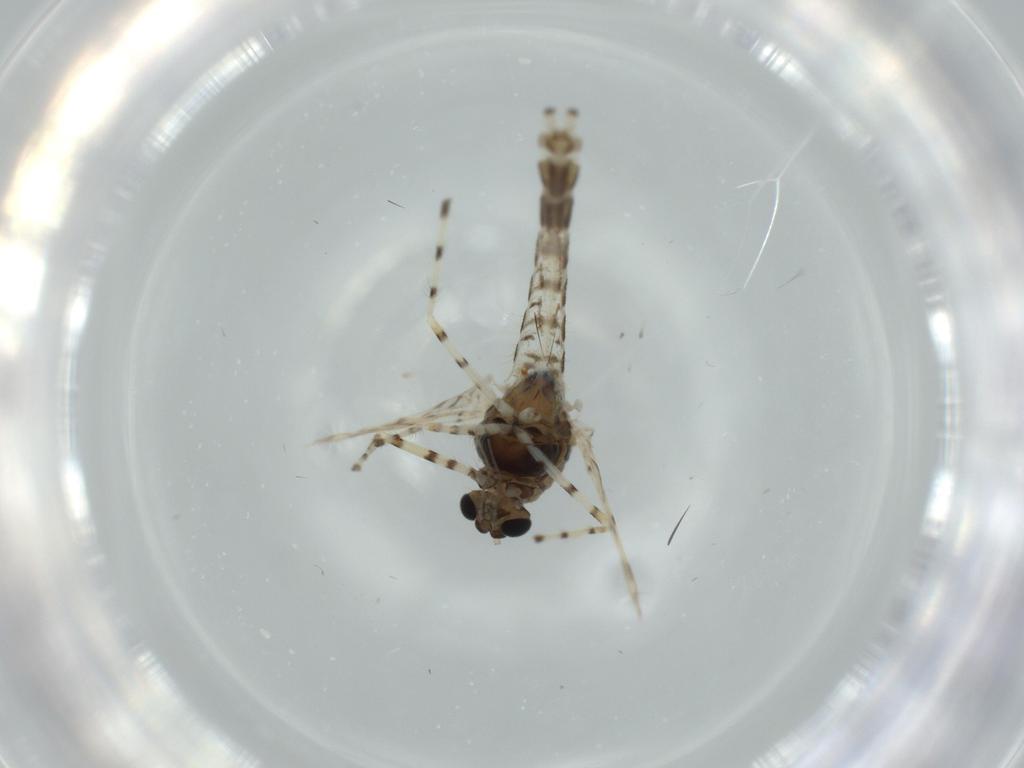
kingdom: Animalia
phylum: Arthropoda
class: Insecta
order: Diptera
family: Chironomidae
